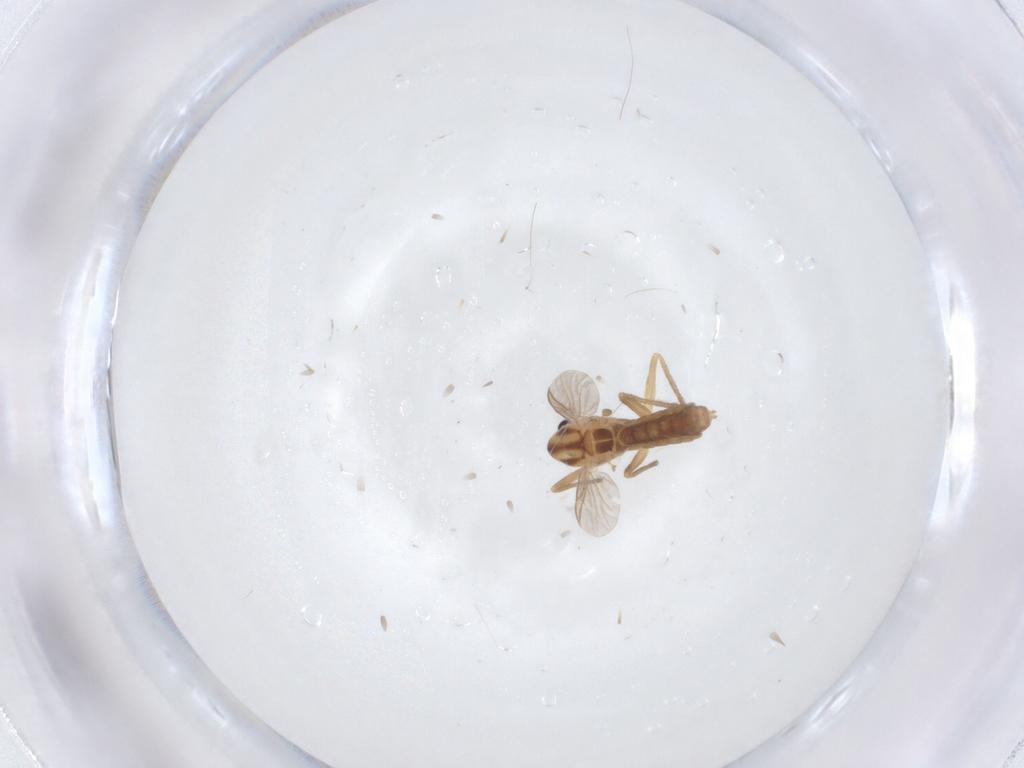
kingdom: Animalia
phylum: Arthropoda
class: Insecta
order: Diptera
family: Chironomidae
